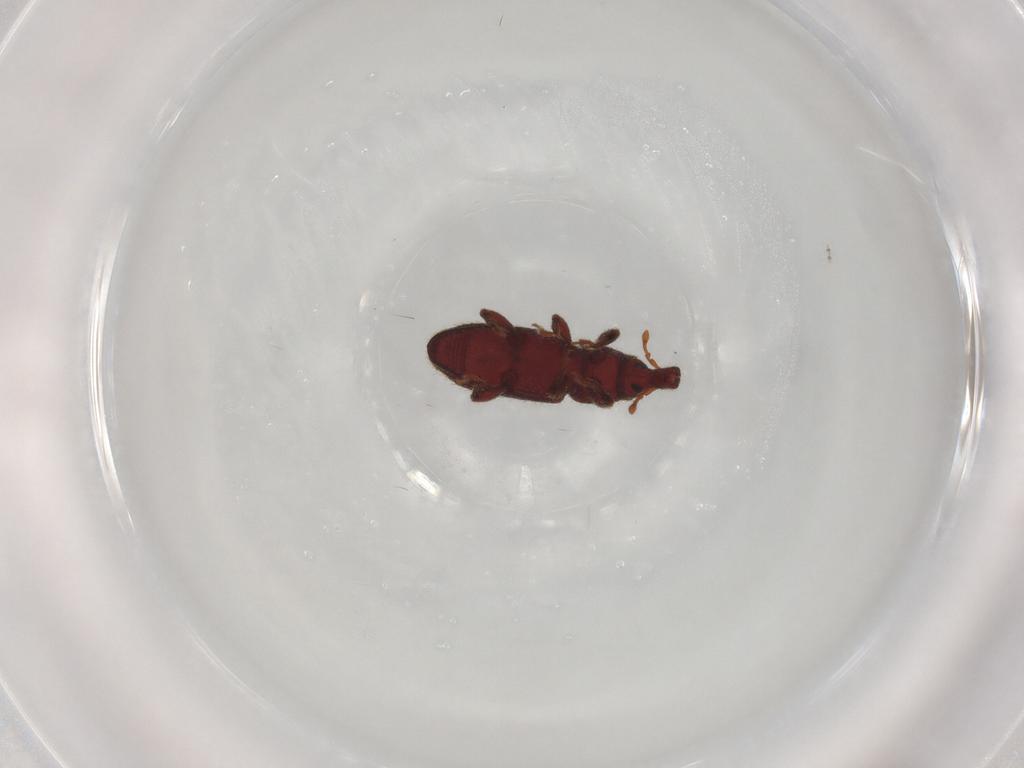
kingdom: Animalia
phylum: Arthropoda
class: Insecta
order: Coleoptera
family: Curculionidae
